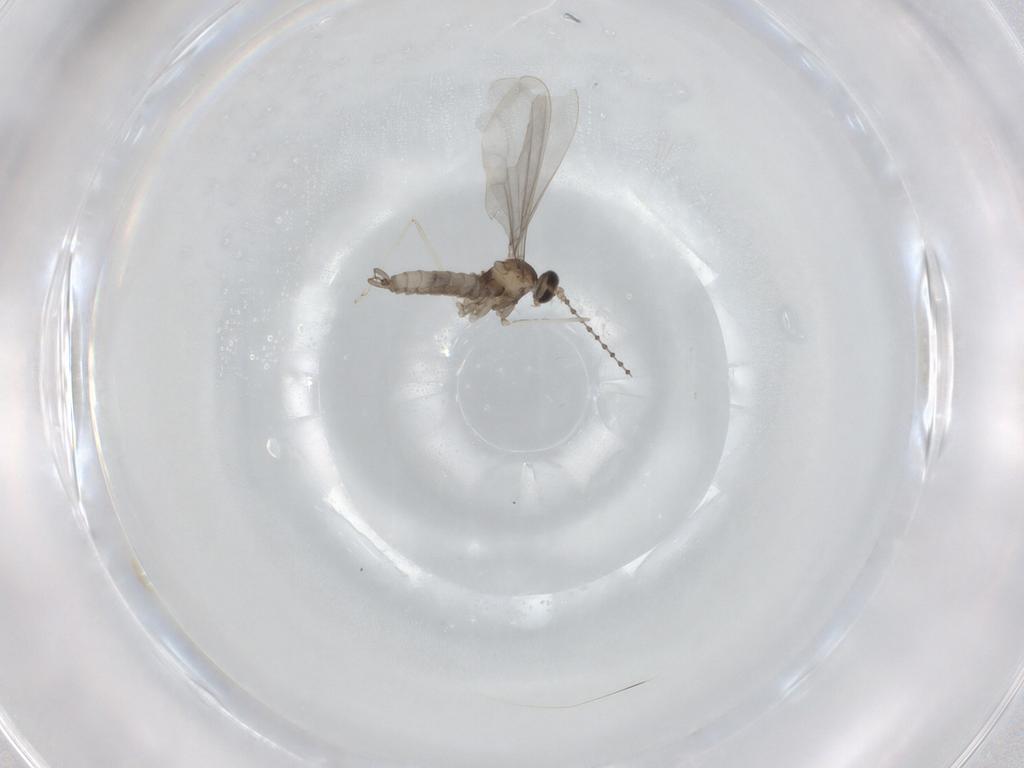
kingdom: Animalia
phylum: Arthropoda
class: Insecta
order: Diptera
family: Cecidomyiidae
